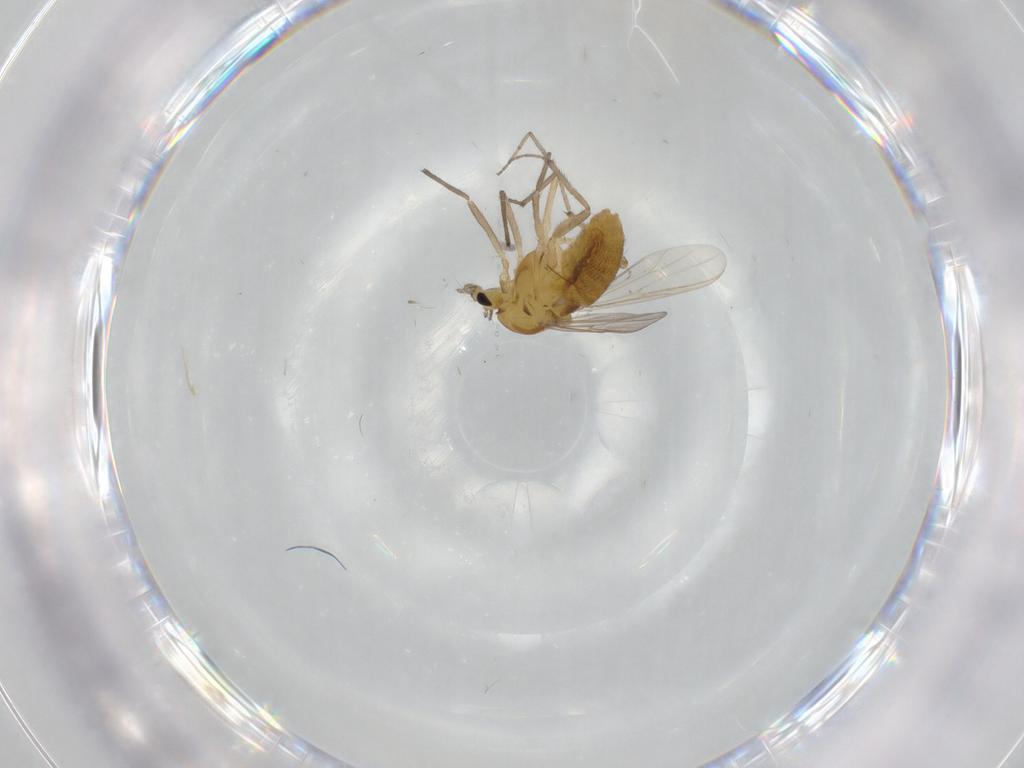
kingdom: Animalia
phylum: Arthropoda
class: Insecta
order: Diptera
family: Chironomidae
